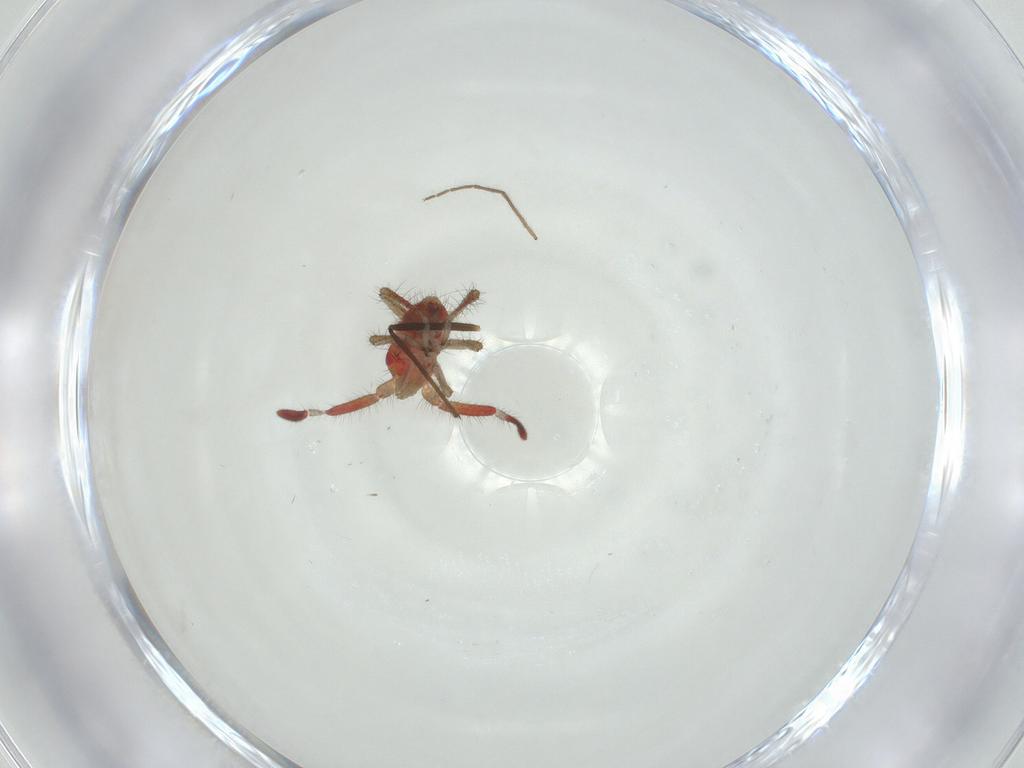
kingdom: Animalia
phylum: Arthropoda
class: Insecta
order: Hemiptera
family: Miridae
